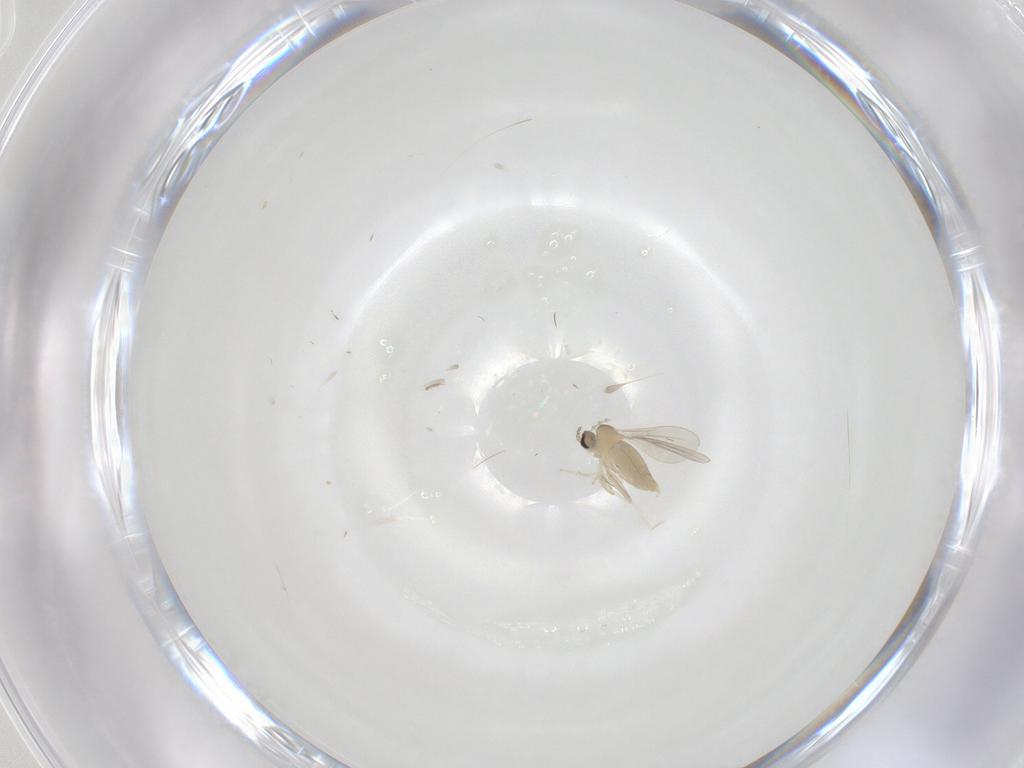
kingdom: Animalia
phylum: Arthropoda
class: Insecta
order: Diptera
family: Cecidomyiidae
